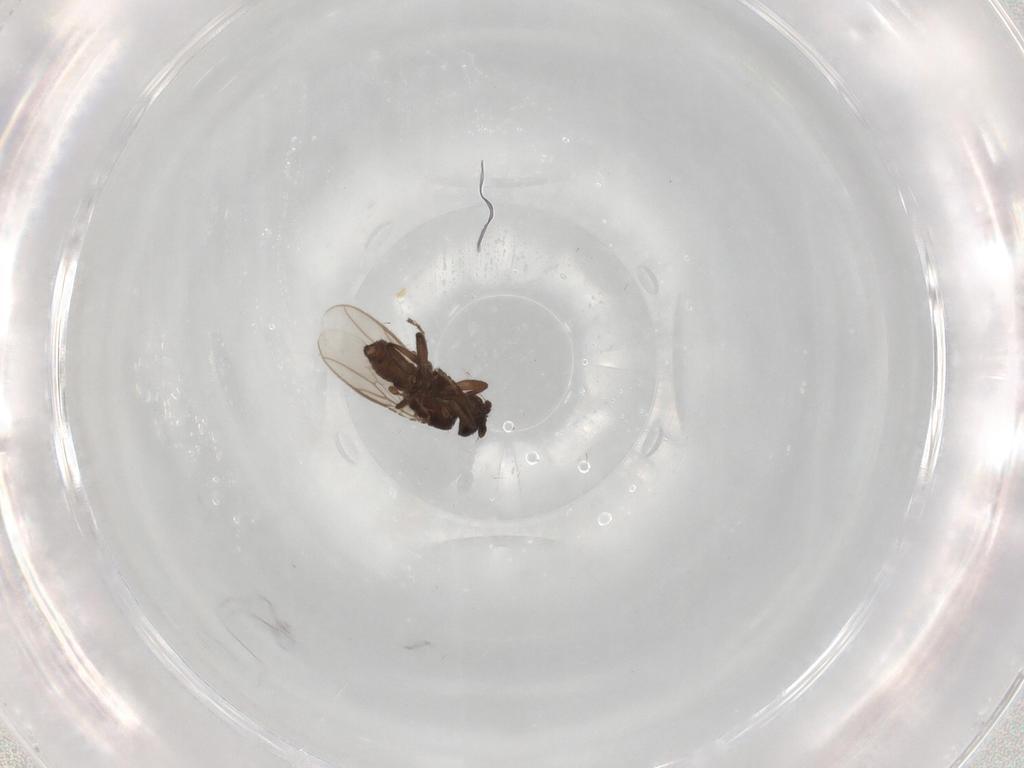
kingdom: Animalia
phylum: Arthropoda
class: Insecta
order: Diptera
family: Sphaeroceridae
